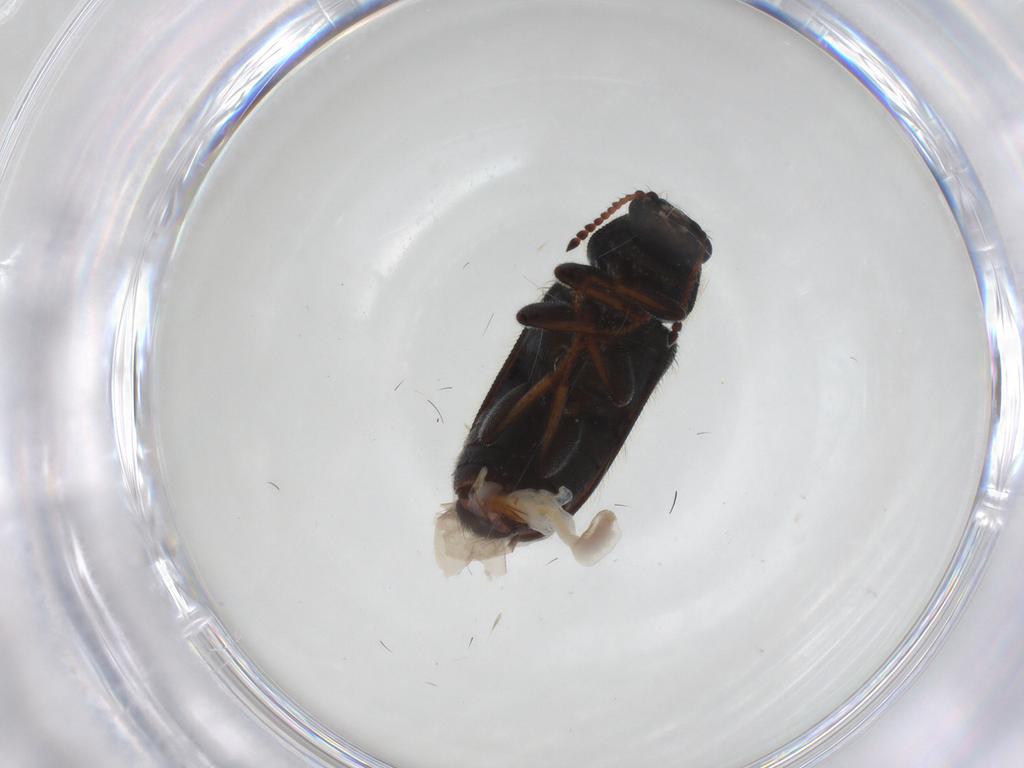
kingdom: Animalia
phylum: Arthropoda
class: Insecta
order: Coleoptera
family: Melyridae
